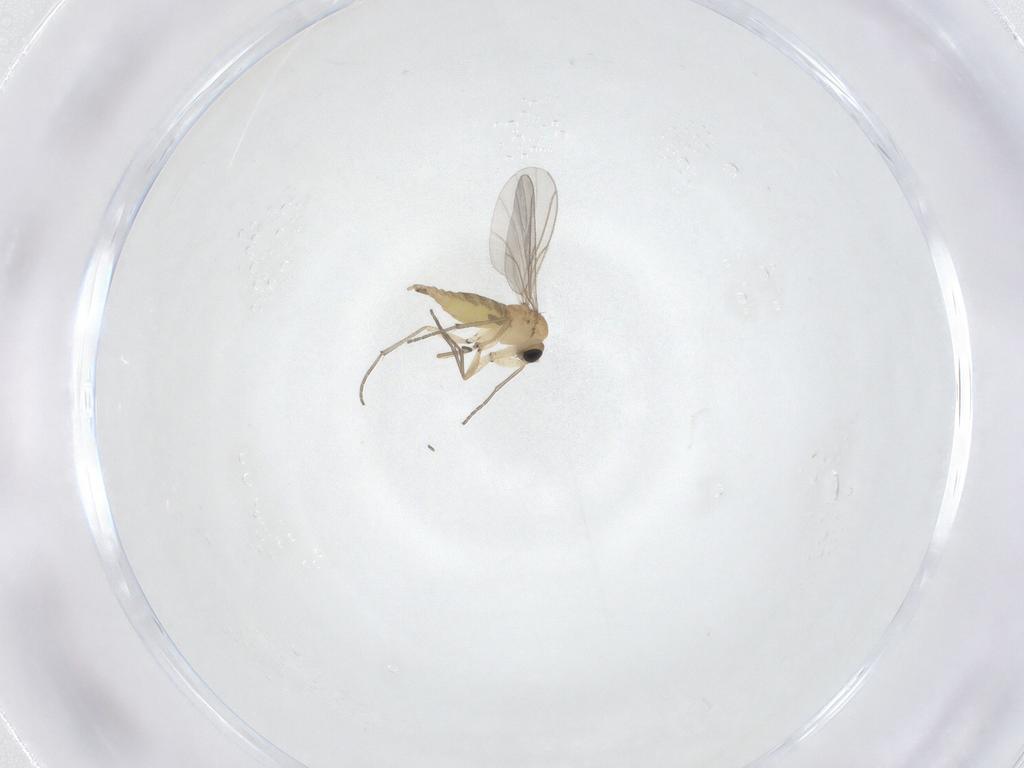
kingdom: Animalia
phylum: Arthropoda
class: Insecta
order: Diptera
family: Sciaridae
